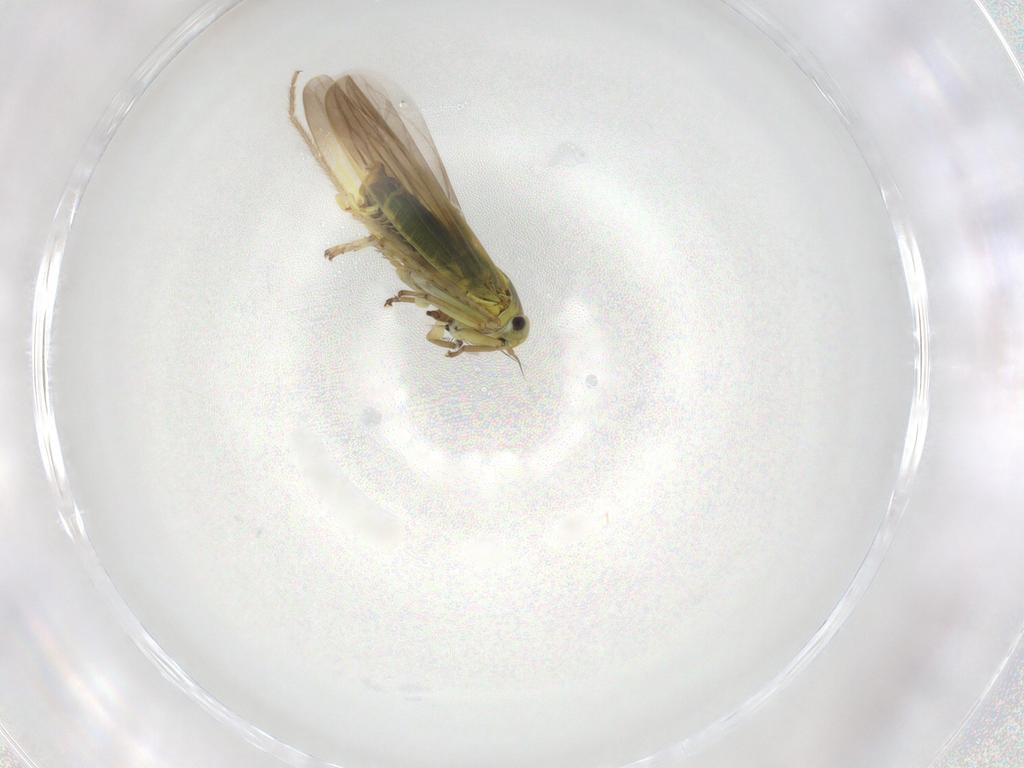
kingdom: Animalia
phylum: Arthropoda
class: Insecta
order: Hemiptera
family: Cicadellidae
